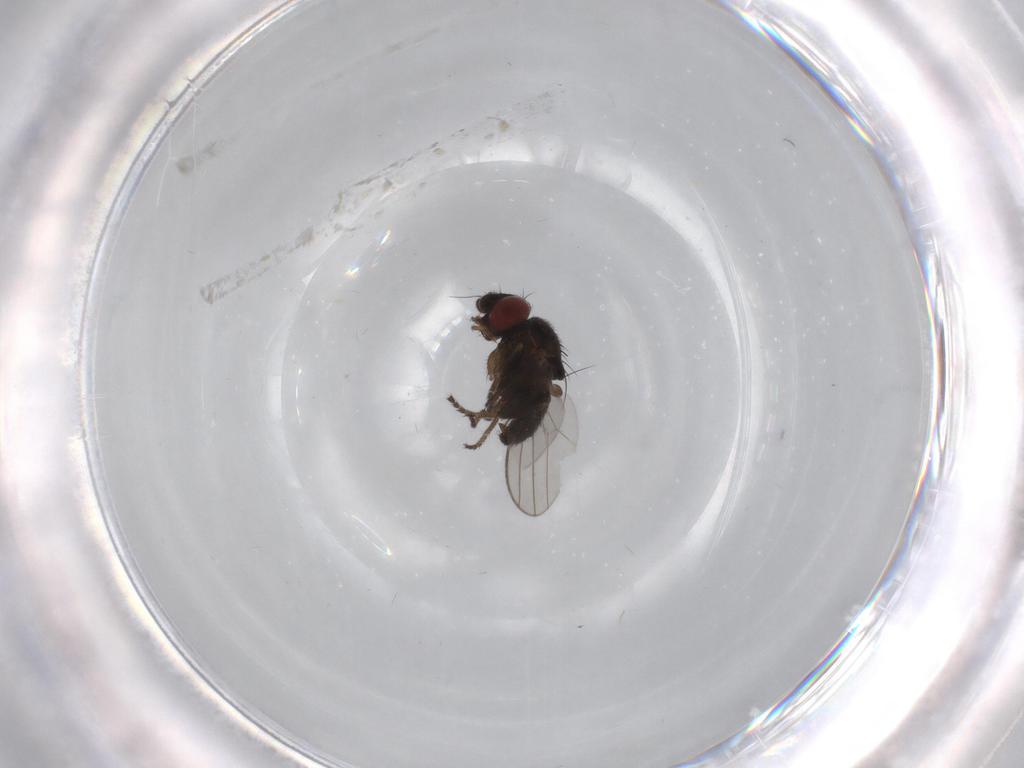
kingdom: Animalia
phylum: Arthropoda
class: Insecta
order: Diptera
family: Milichiidae
